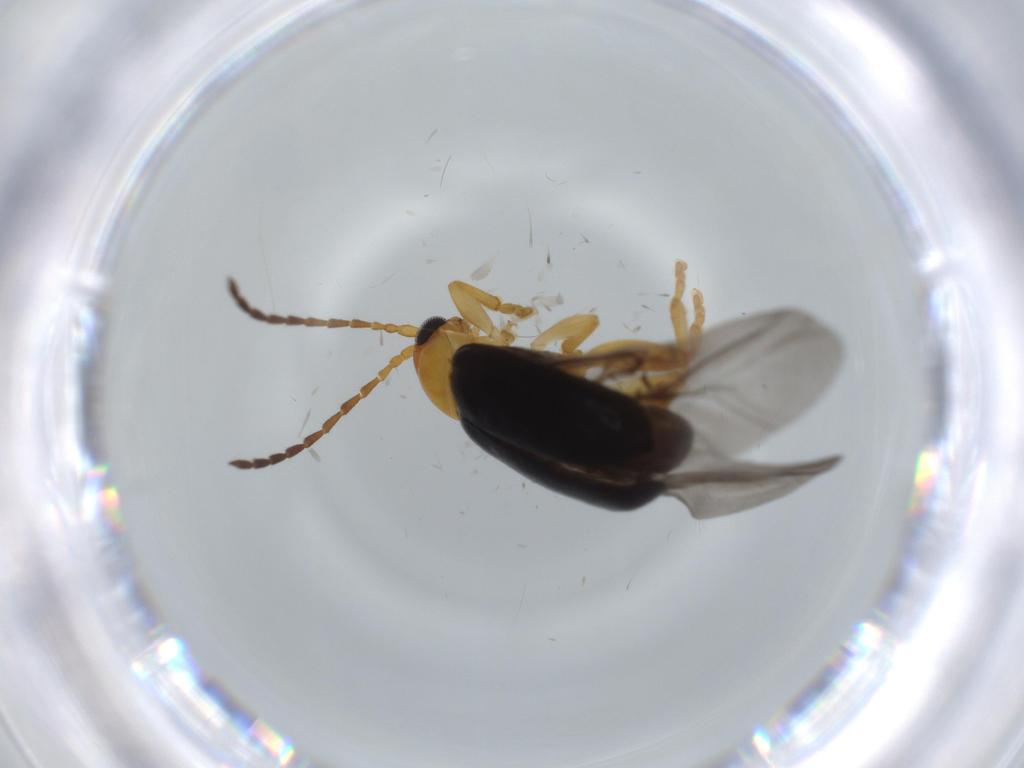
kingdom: Animalia
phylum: Arthropoda
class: Insecta
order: Coleoptera
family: Chrysomelidae
